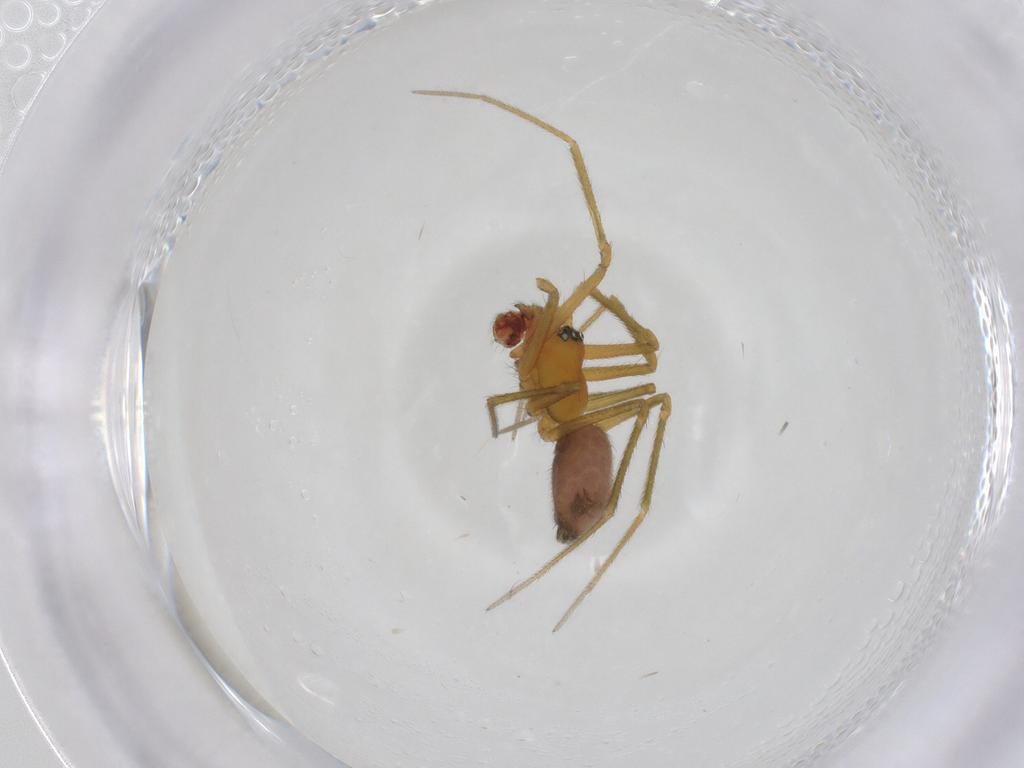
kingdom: Animalia
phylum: Arthropoda
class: Arachnida
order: Araneae
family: Linyphiidae
